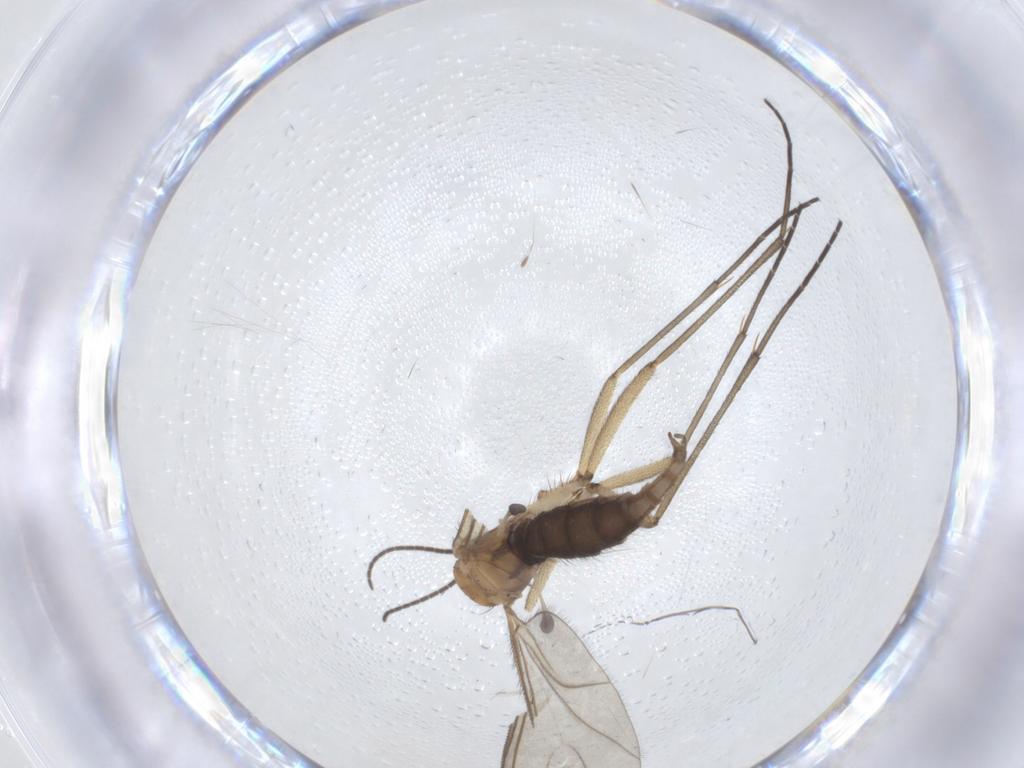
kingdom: Animalia
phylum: Arthropoda
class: Insecta
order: Diptera
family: Sciaridae
